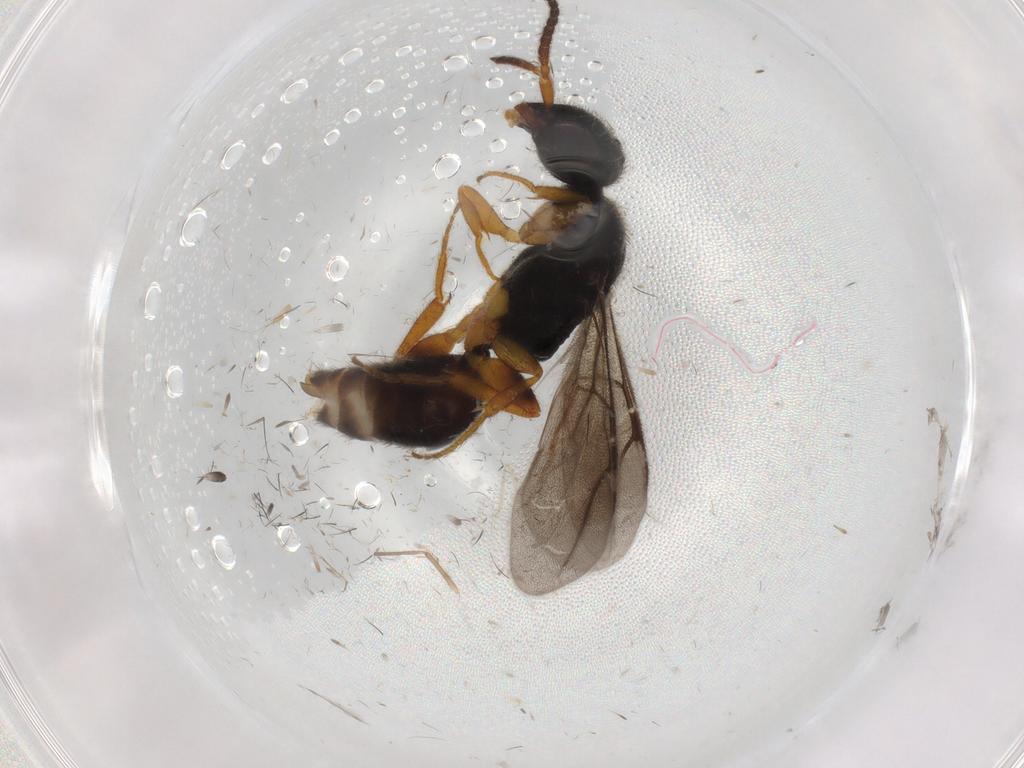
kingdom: Animalia
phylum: Arthropoda
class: Insecta
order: Hymenoptera
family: Bethylidae
